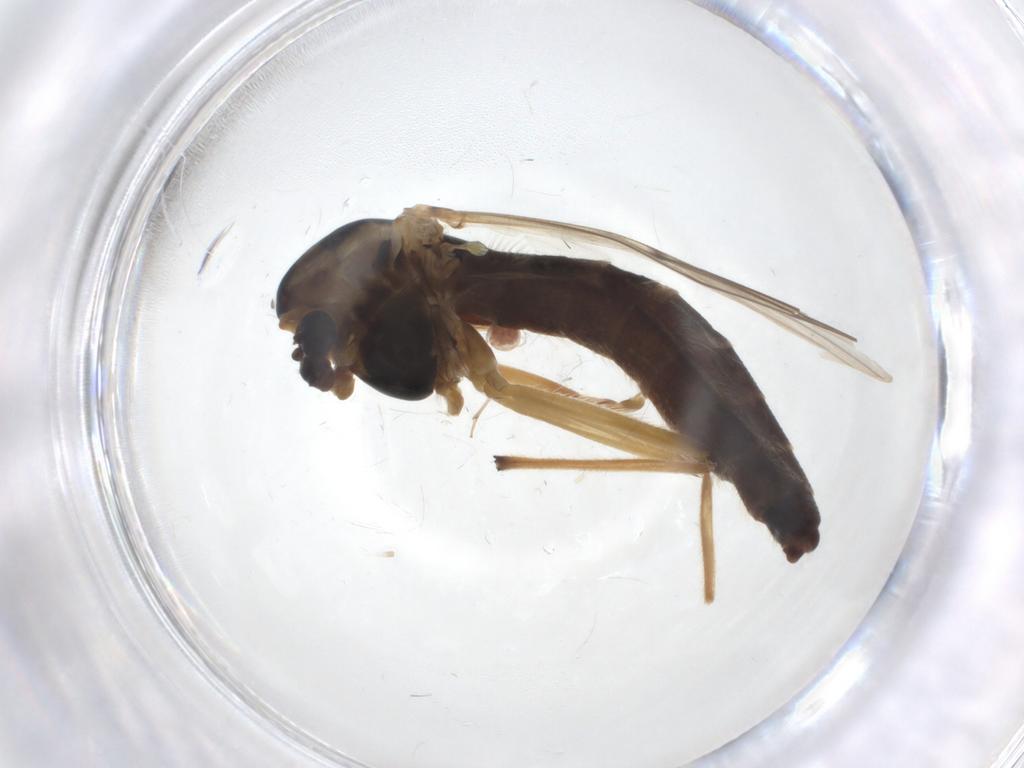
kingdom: Animalia
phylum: Arthropoda
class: Insecta
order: Diptera
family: Chironomidae
